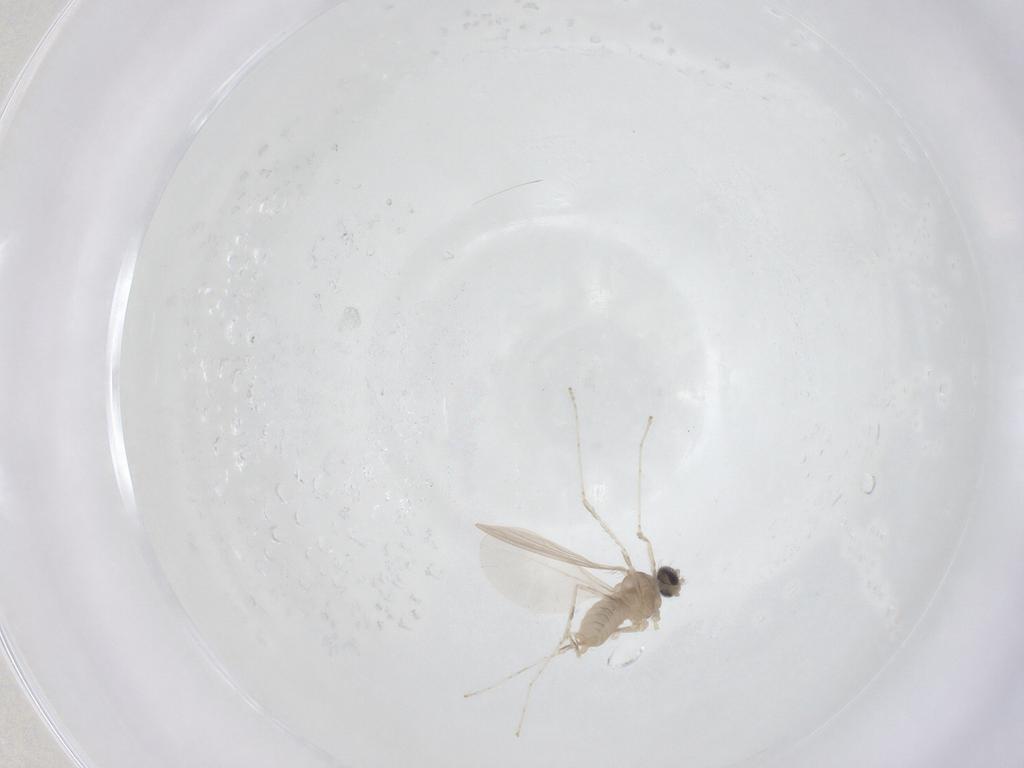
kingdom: Animalia
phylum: Arthropoda
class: Insecta
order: Diptera
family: Cecidomyiidae
